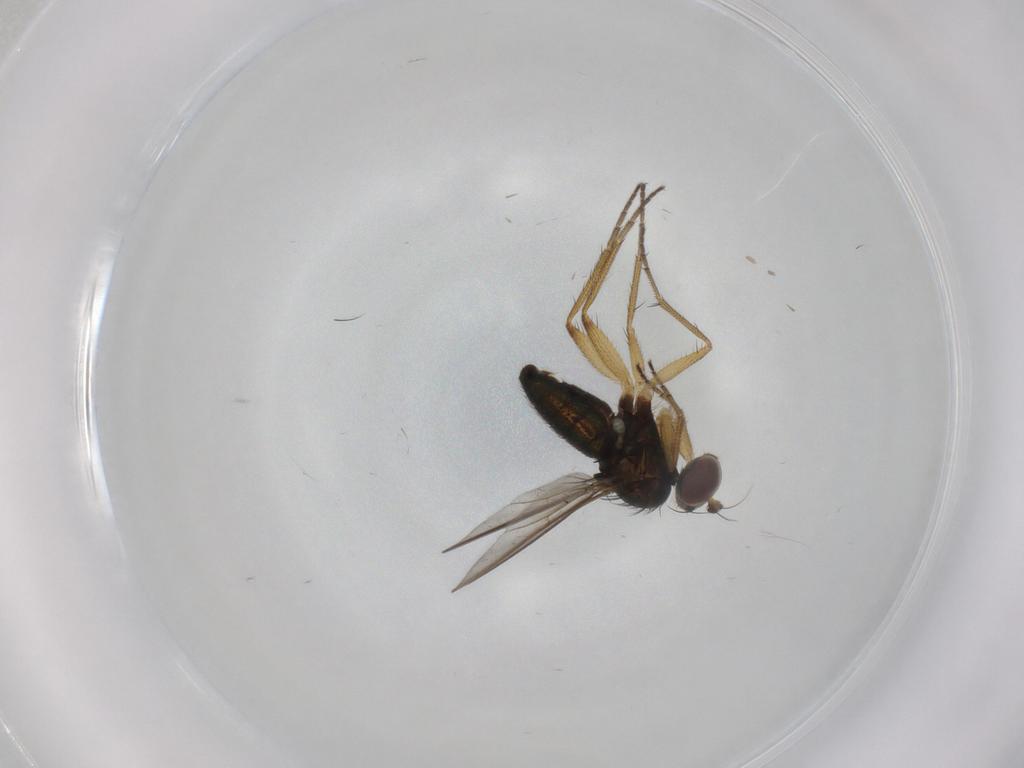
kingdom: Animalia
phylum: Arthropoda
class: Insecta
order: Diptera
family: Dolichopodidae
